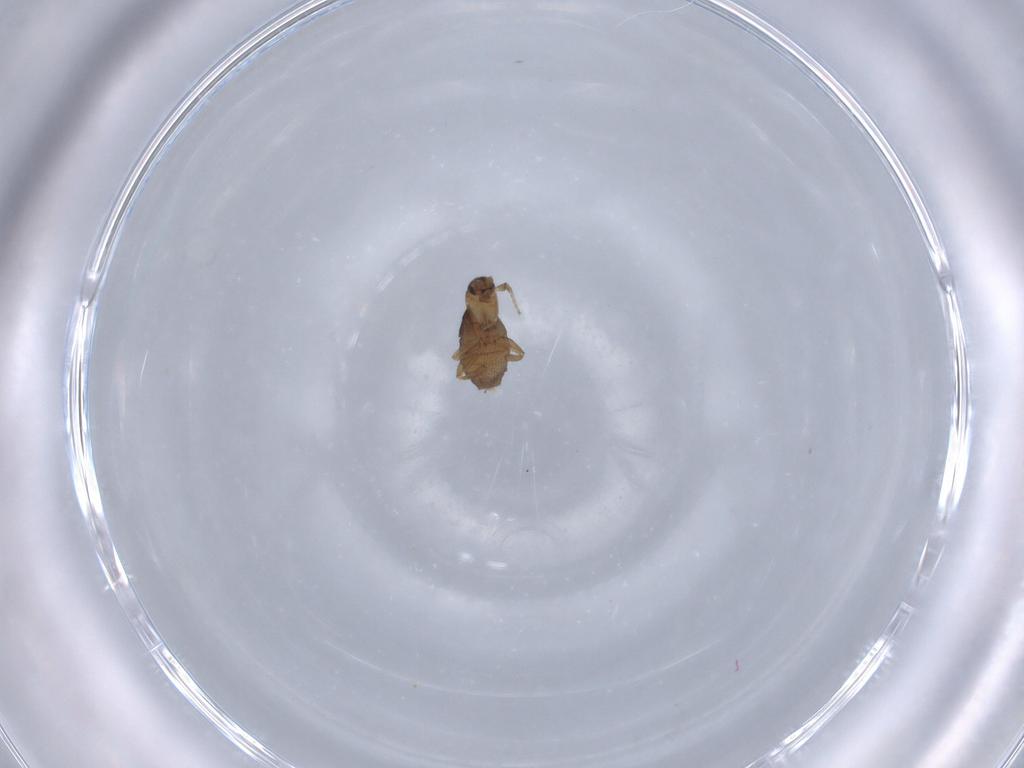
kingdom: Animalia
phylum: Arthropoda
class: Insecta
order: Diptera
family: Phoridae
